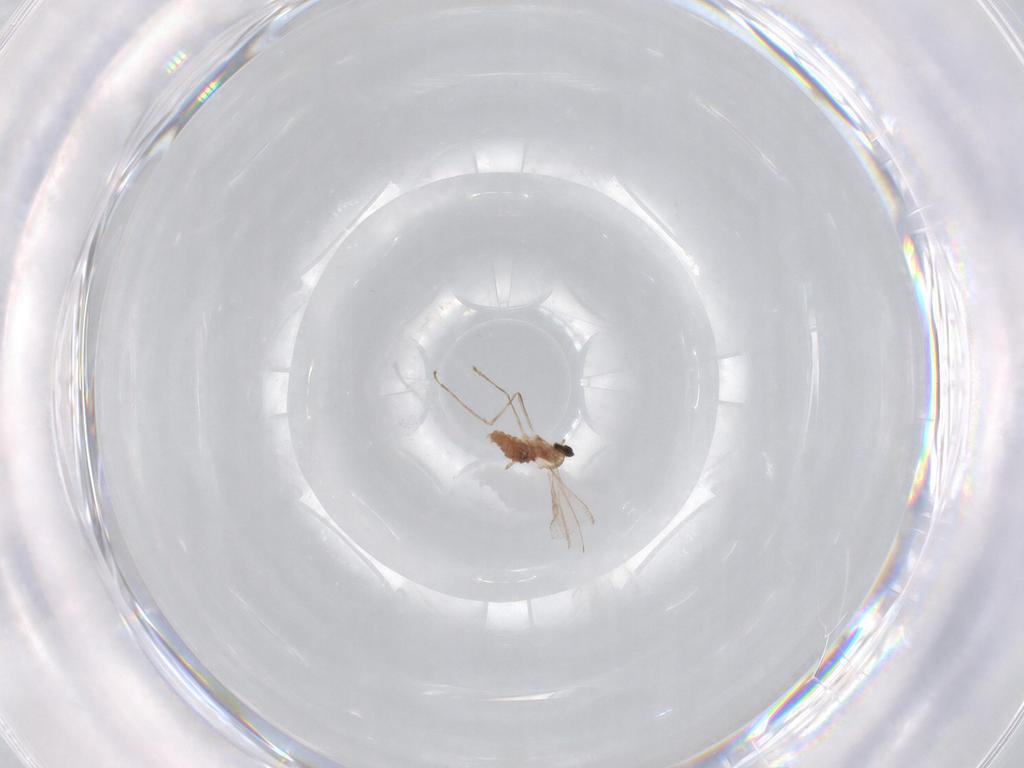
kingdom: Animalia
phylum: Arthropoda
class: Insecta
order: Diptera
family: Keroplatidae
